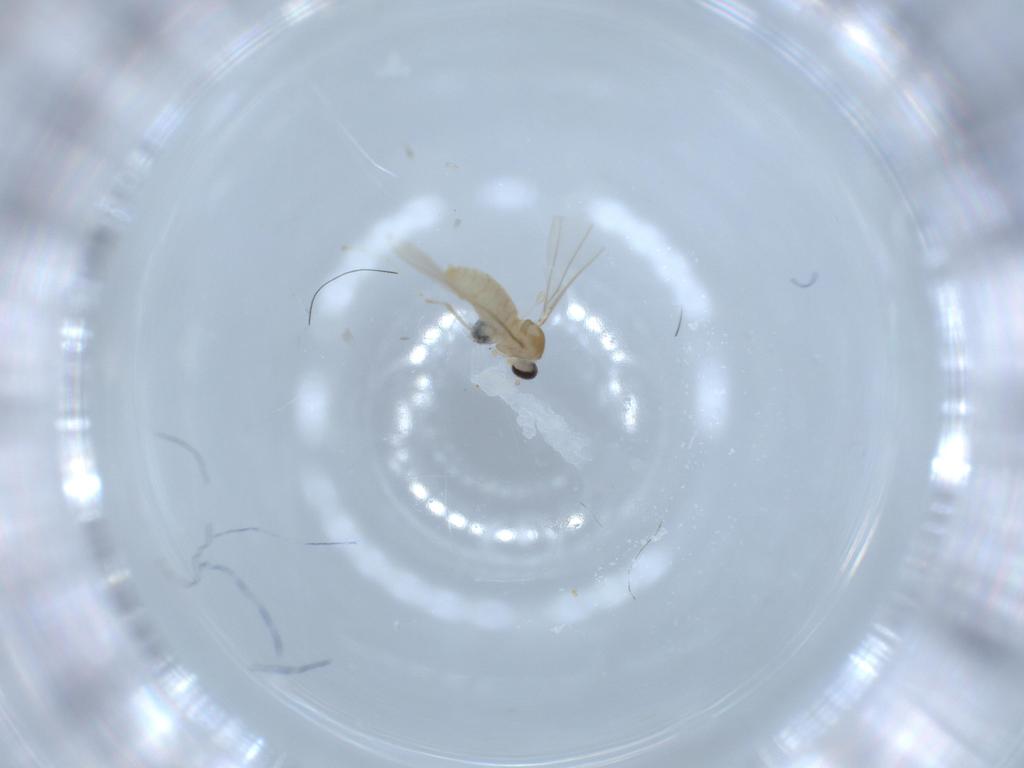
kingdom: Animalia
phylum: Arthropoda
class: Insecta
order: Diptera
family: Cecidomyiidae
